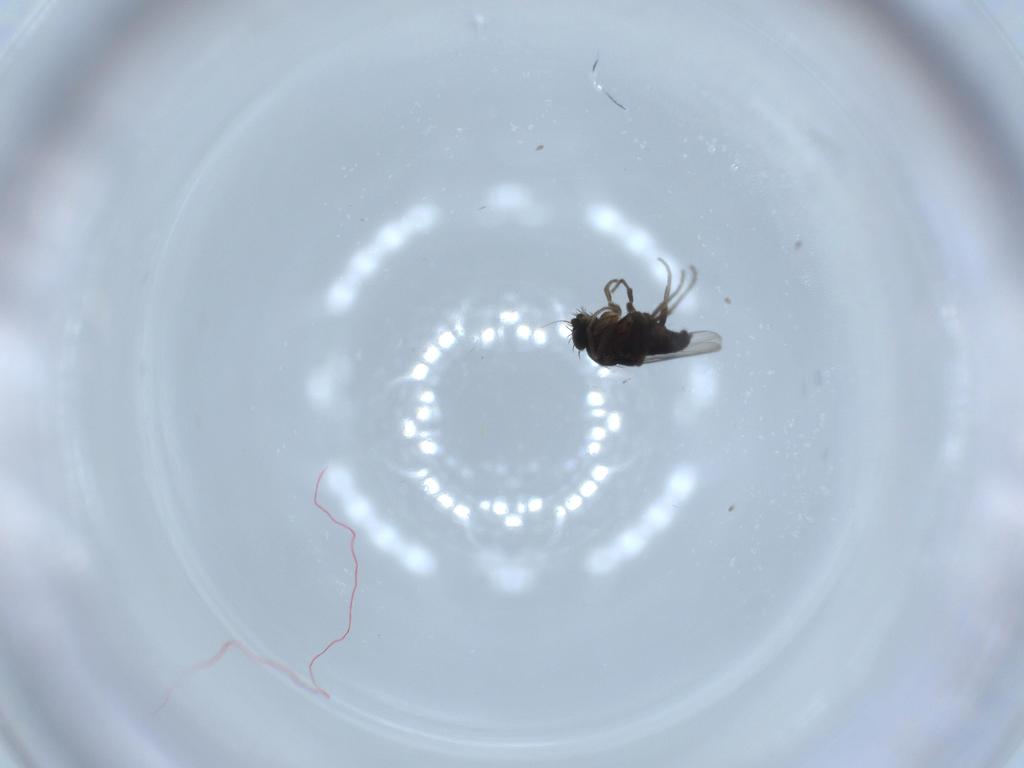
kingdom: Animalia
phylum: Arthropoda
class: Insecta
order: Diptera
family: Phoridae
